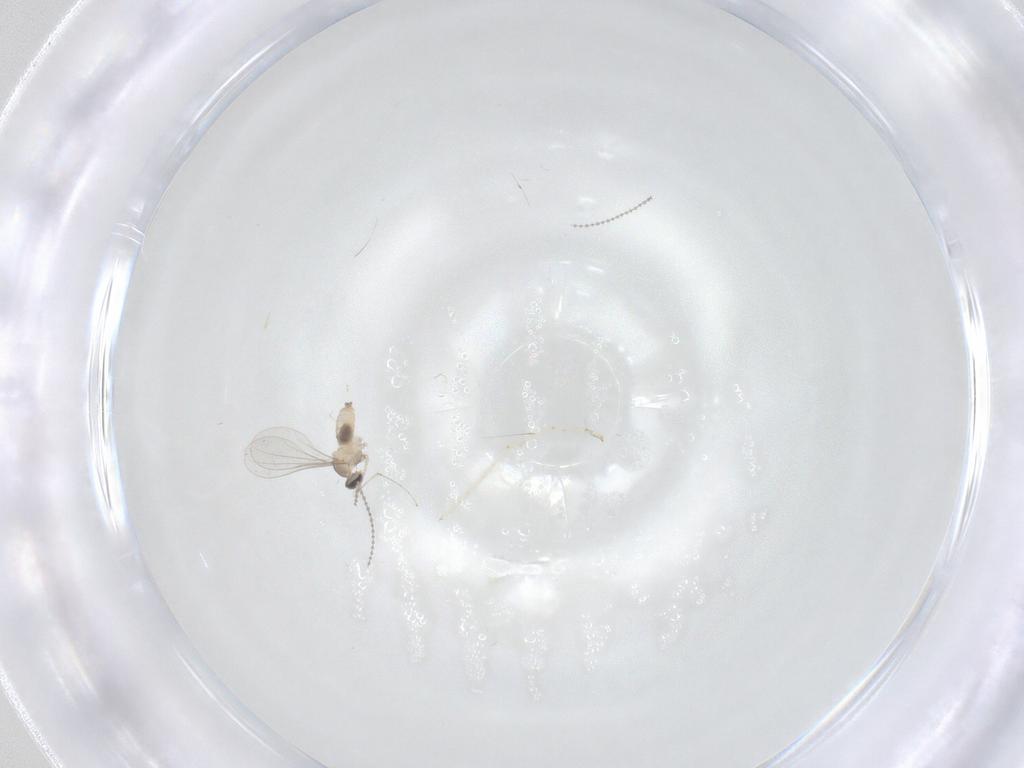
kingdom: Animalia
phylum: Arthropoda
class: Insecta
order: Diptera
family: Cecidomyiidae
